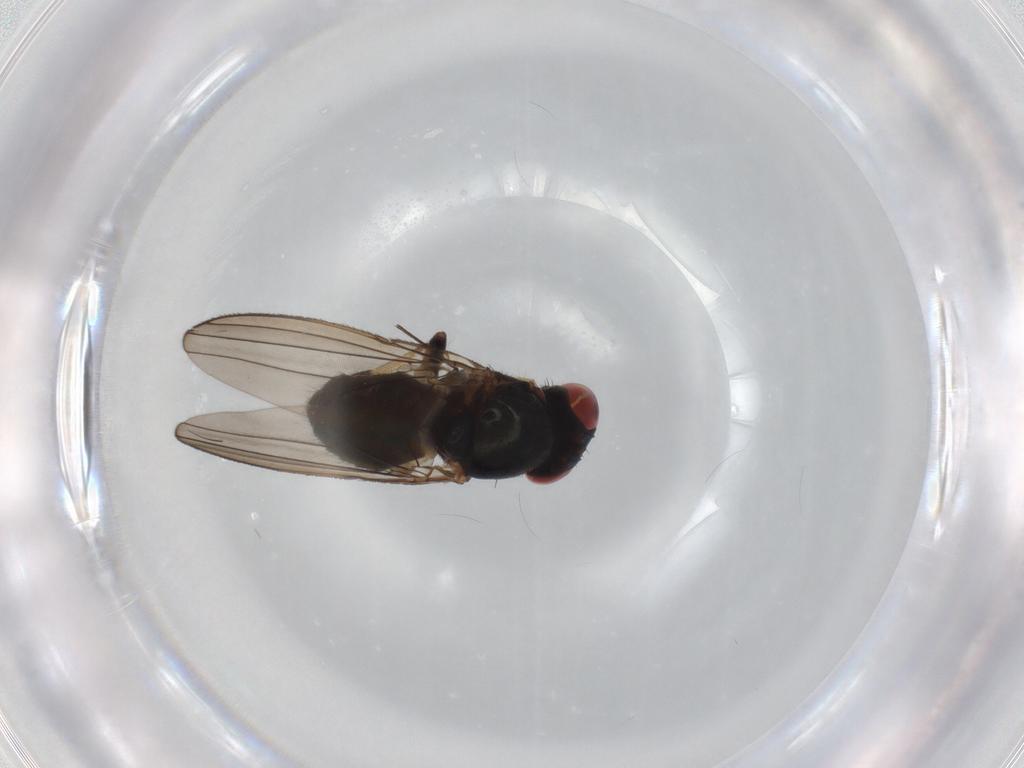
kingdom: Animalia
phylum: Arthropoda
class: Insecta
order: Diptera
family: Aulacigastridae
